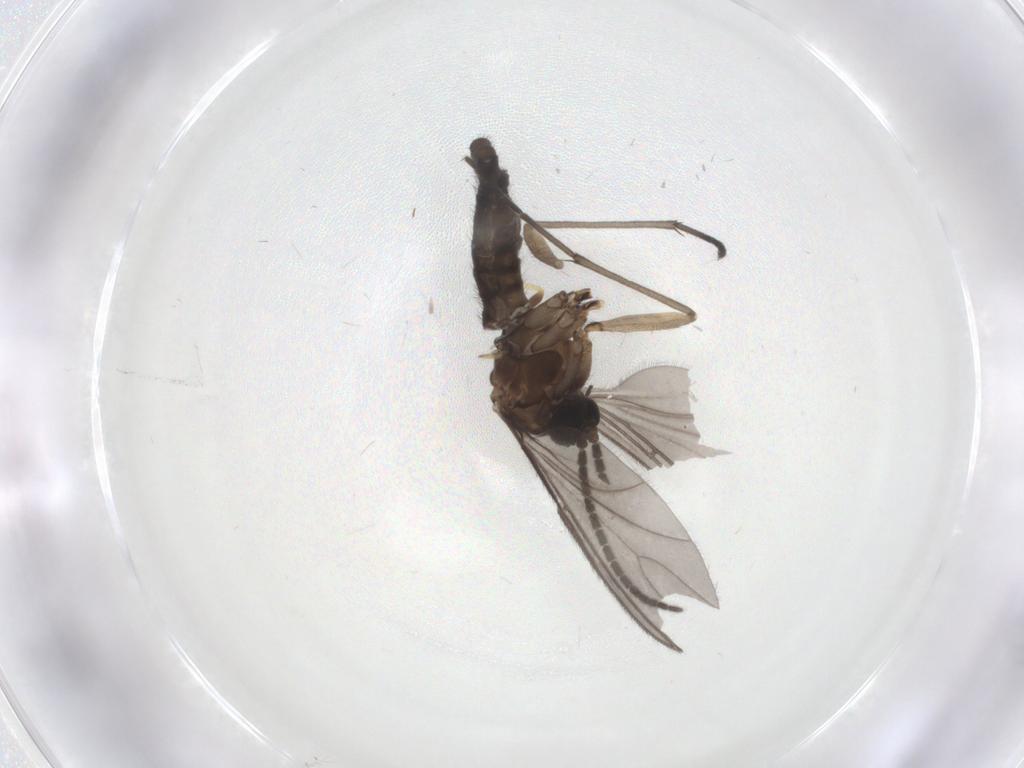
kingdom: Animalia
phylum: Arthropoda
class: Insecta
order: Diptera
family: Sciaridae
